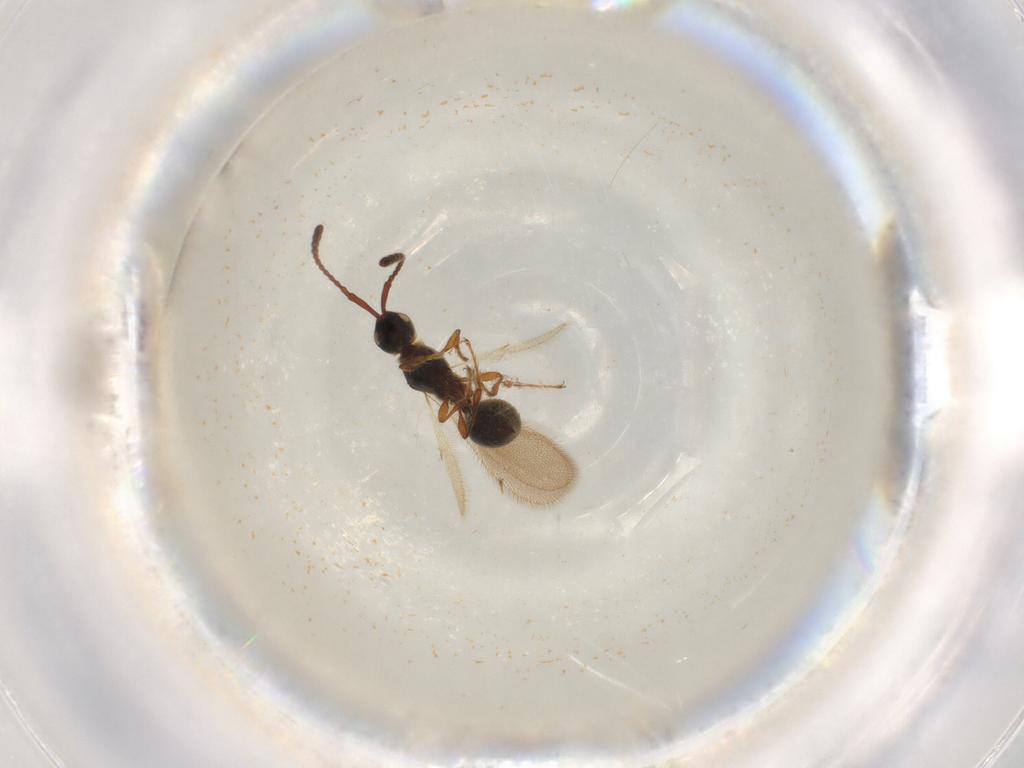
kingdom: Animalia
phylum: Arthropoda
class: Insecta
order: Hymenoptera
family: Diapriidae
